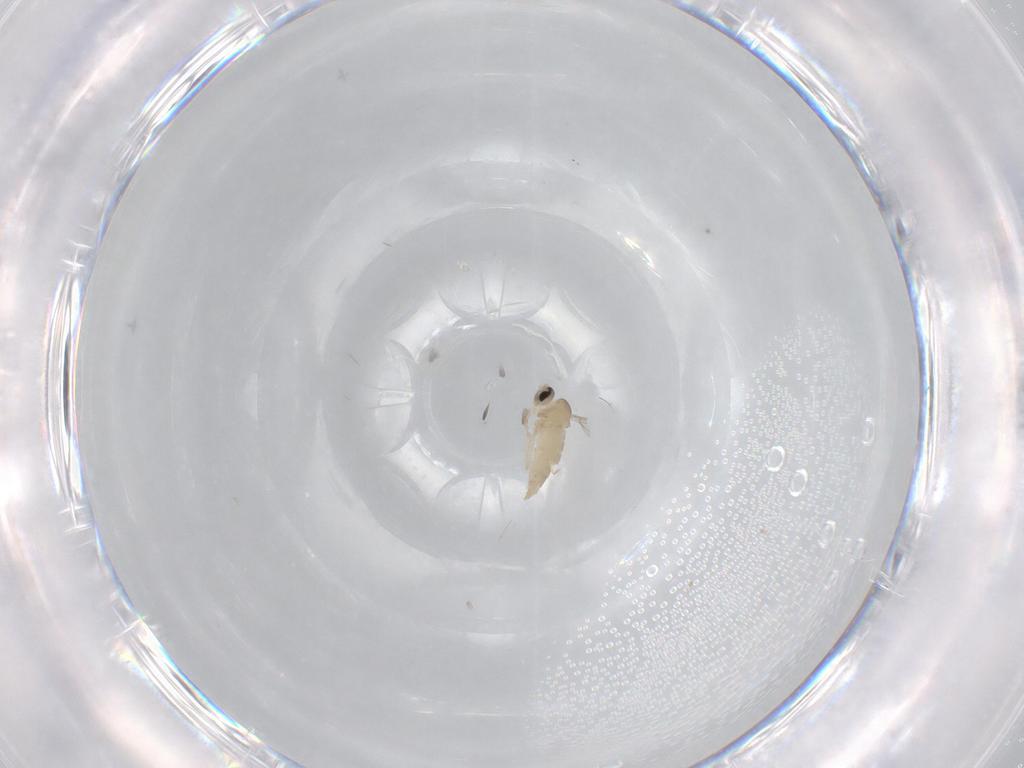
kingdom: Animalia
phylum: Arthropoda
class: Insecta
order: Diptera
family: Cecidomyiidae
